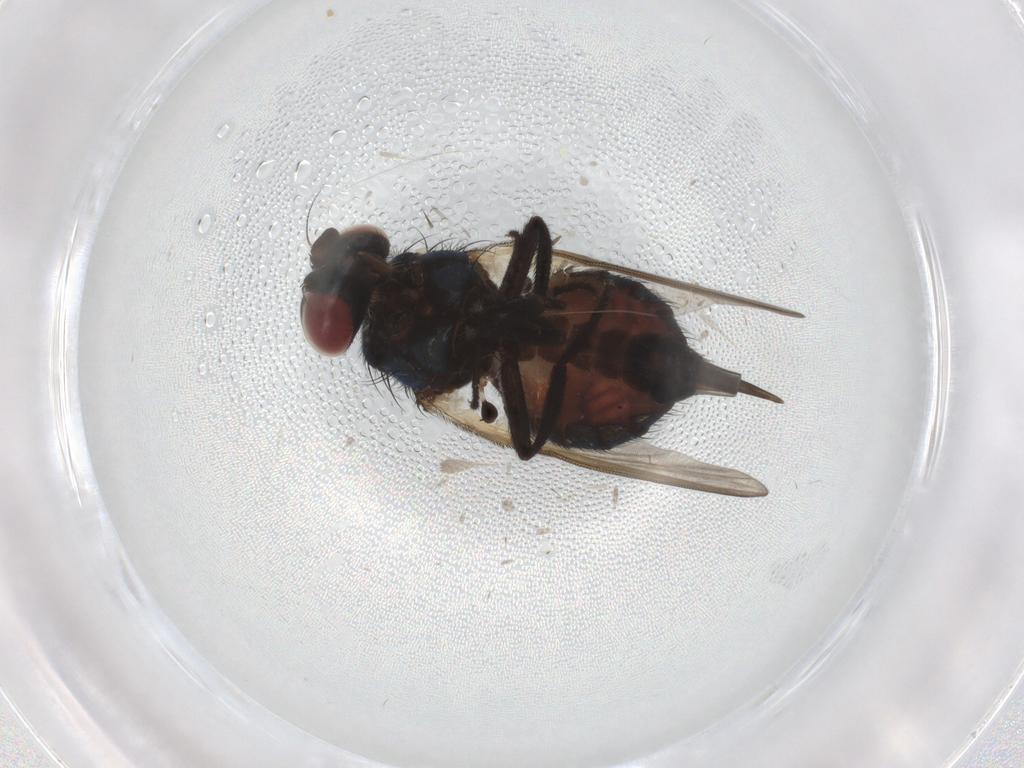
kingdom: Animalia
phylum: Arthropoda
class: Insecta
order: Diptera
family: Lonchaeidae
